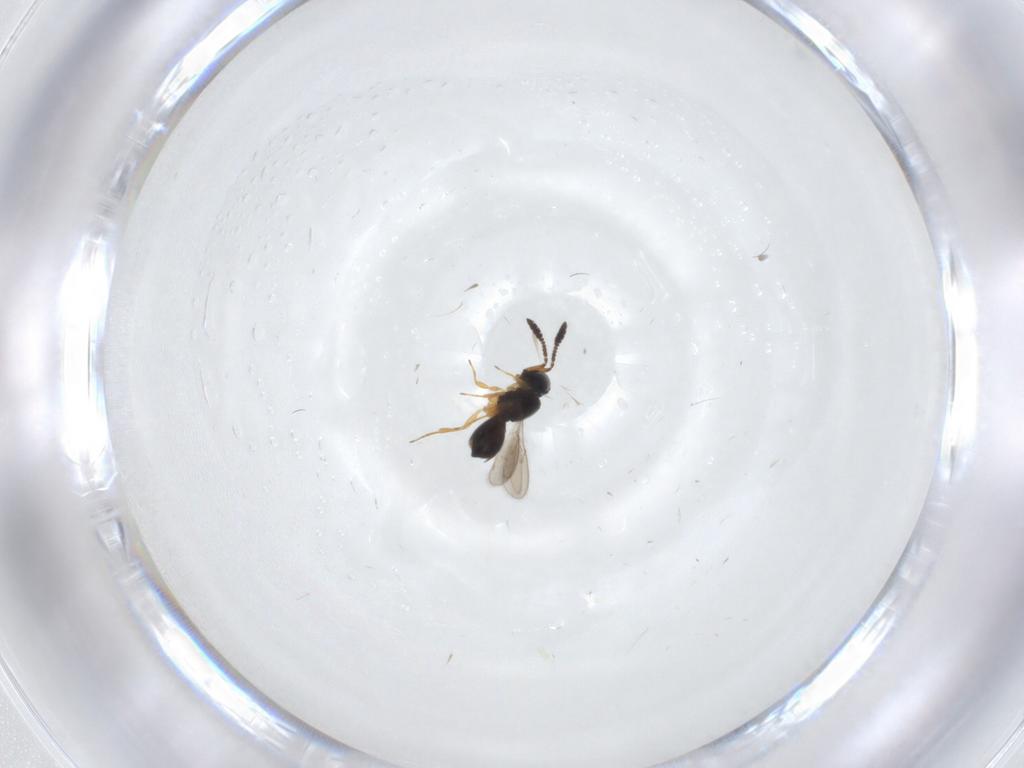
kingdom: Animalia
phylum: Arthropoda
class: Insecta
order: Hymenoptera
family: Scelionidae
